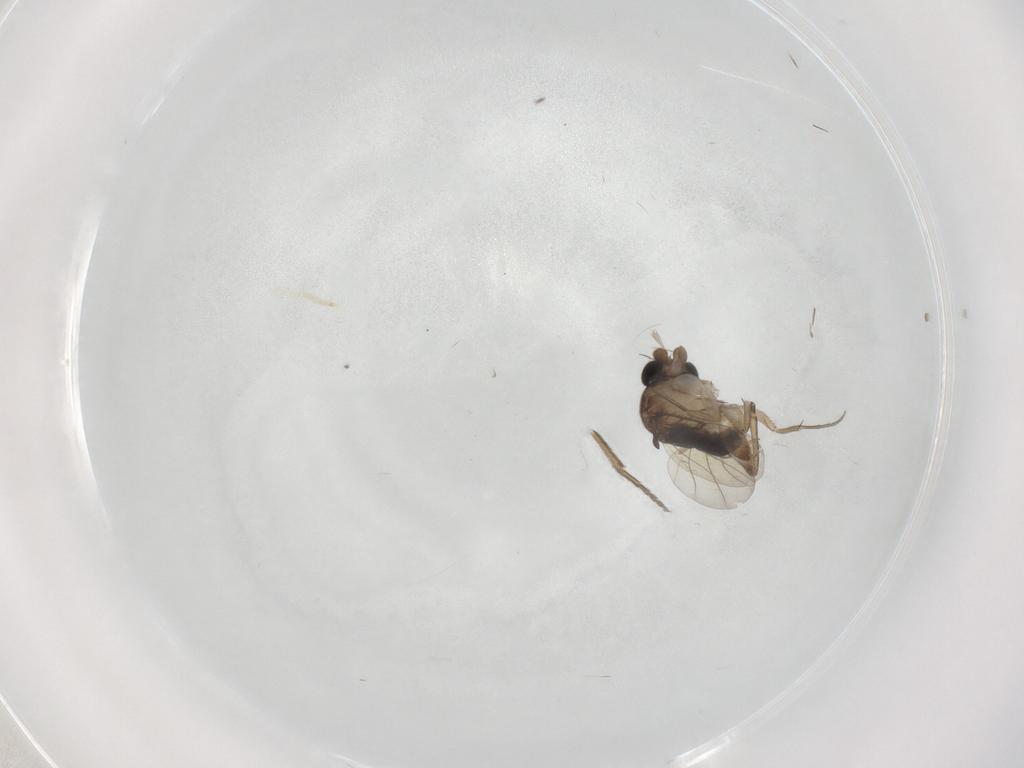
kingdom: Animalia
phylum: Arthropoda
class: Insecta
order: Diptera
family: Phoridae
